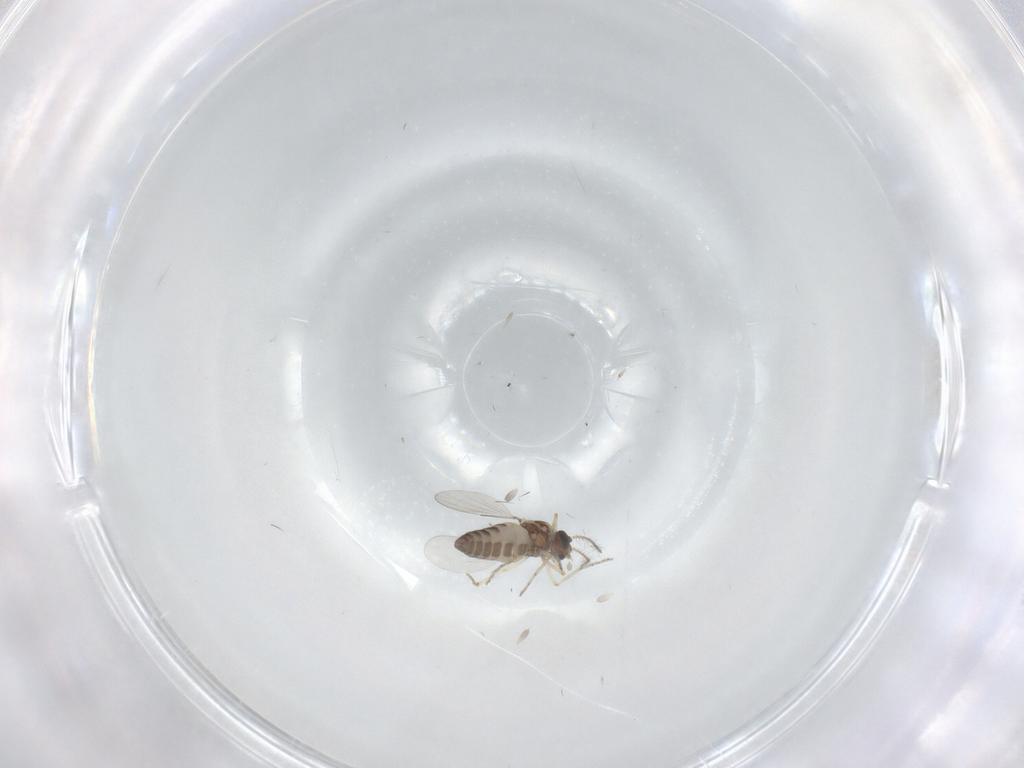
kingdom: Animalia
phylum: Arthropoda
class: Insecta
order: Diptera
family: Ceratopogonidae
